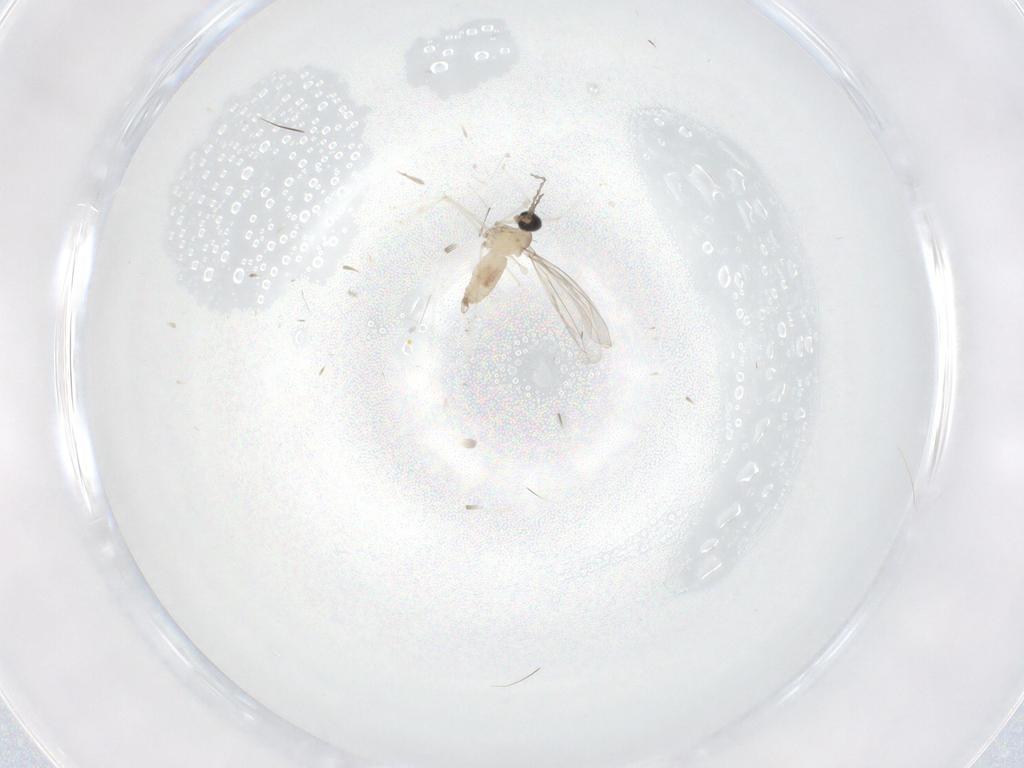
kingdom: Animalia
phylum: Arthropoda
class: Insecta
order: Diptera
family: Cecidomyiidae
